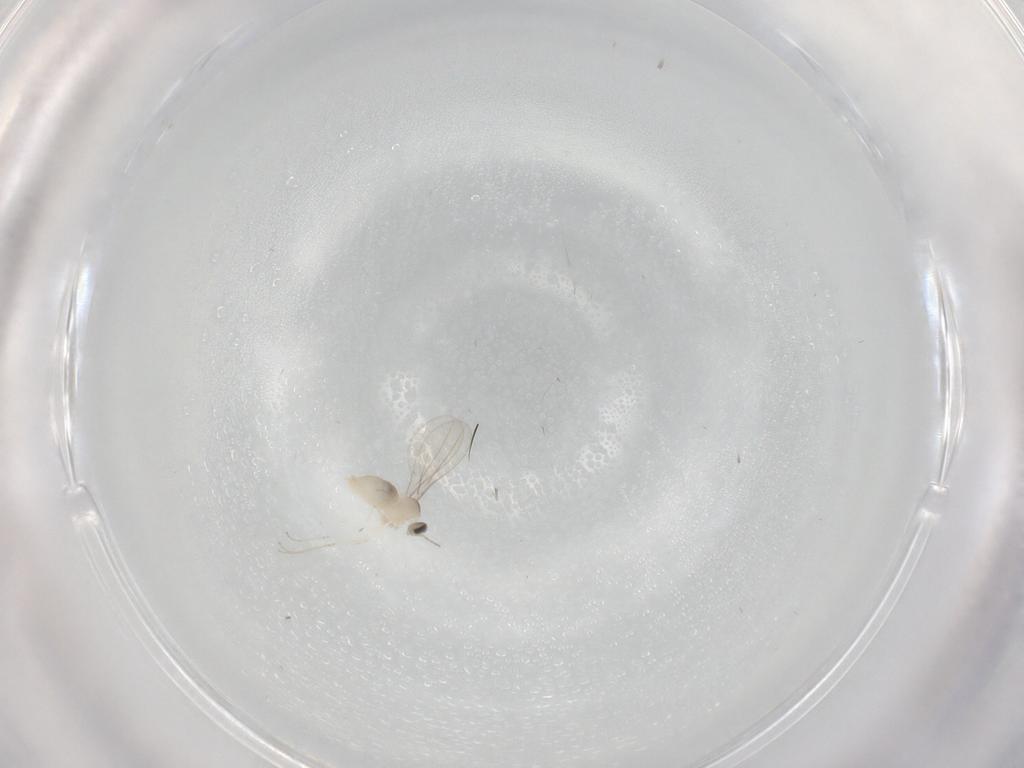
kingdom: Animalia
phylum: Arthropoda
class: Insecta
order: Diptera
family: Cecidomyiidae
